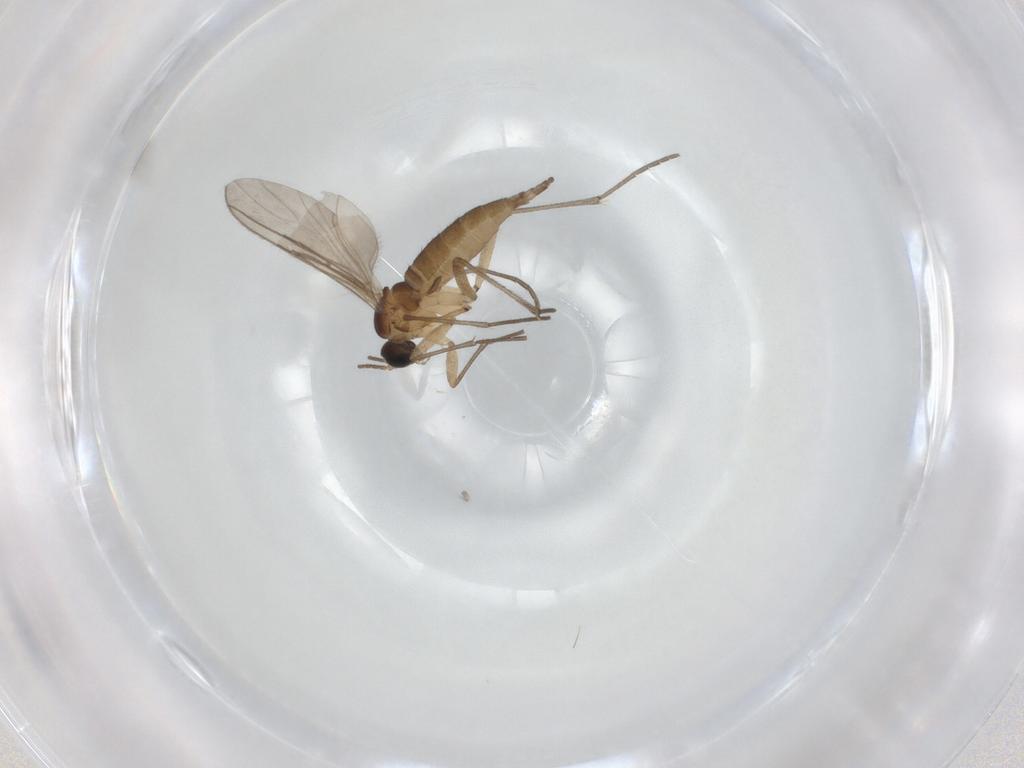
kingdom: Animalia
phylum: Arthropoda
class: Insecta
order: Diptera
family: Sciaridae
